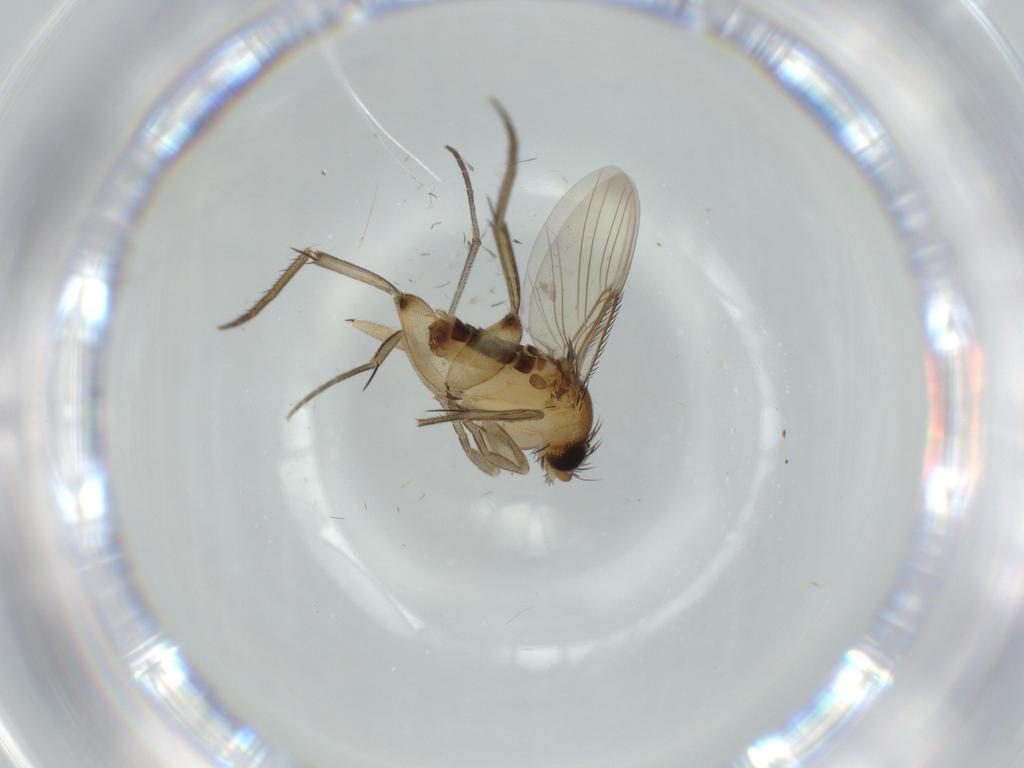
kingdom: Animalia
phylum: Arthropoda
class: Insecta
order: Diptera
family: Phoridae
